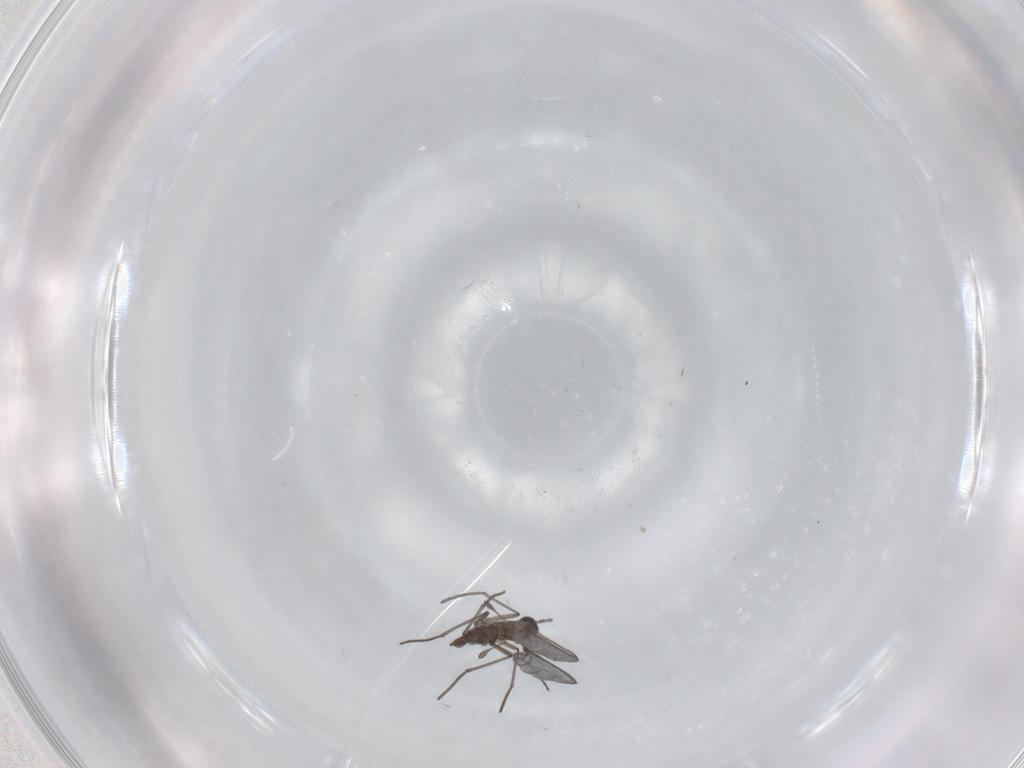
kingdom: Animalia
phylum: Arthropoda
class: Insecta
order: Diptera
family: Sciaridae
